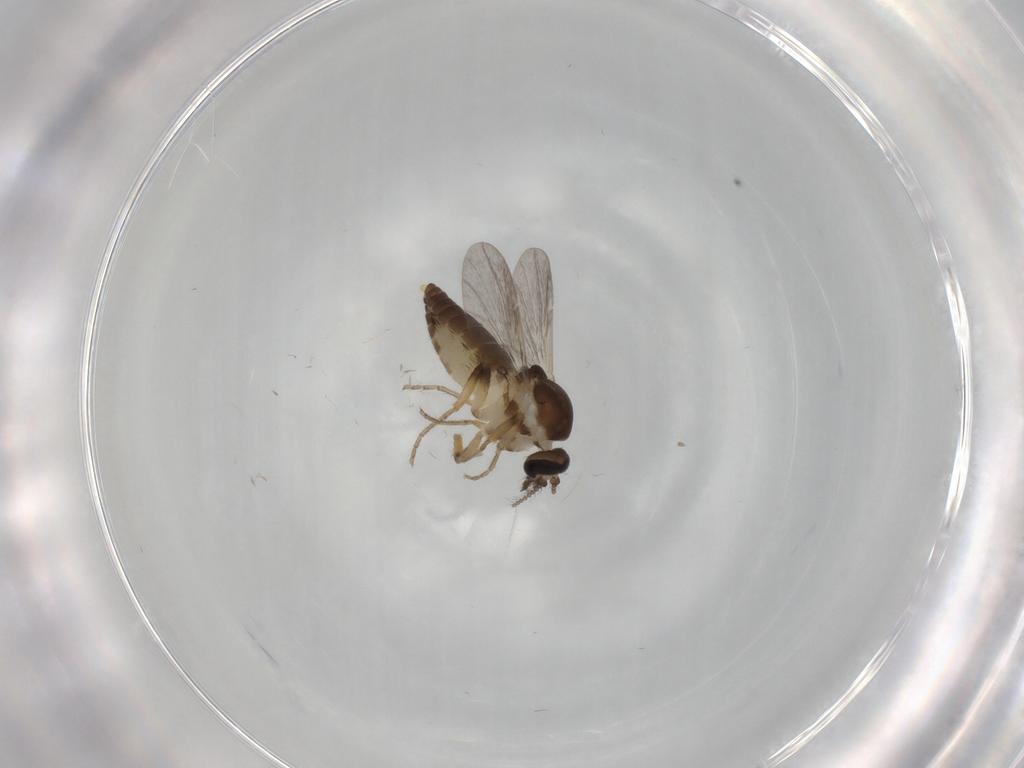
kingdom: Animalia
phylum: Arthropoda
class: Insecta
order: Diptera
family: Ceratopogonidae
